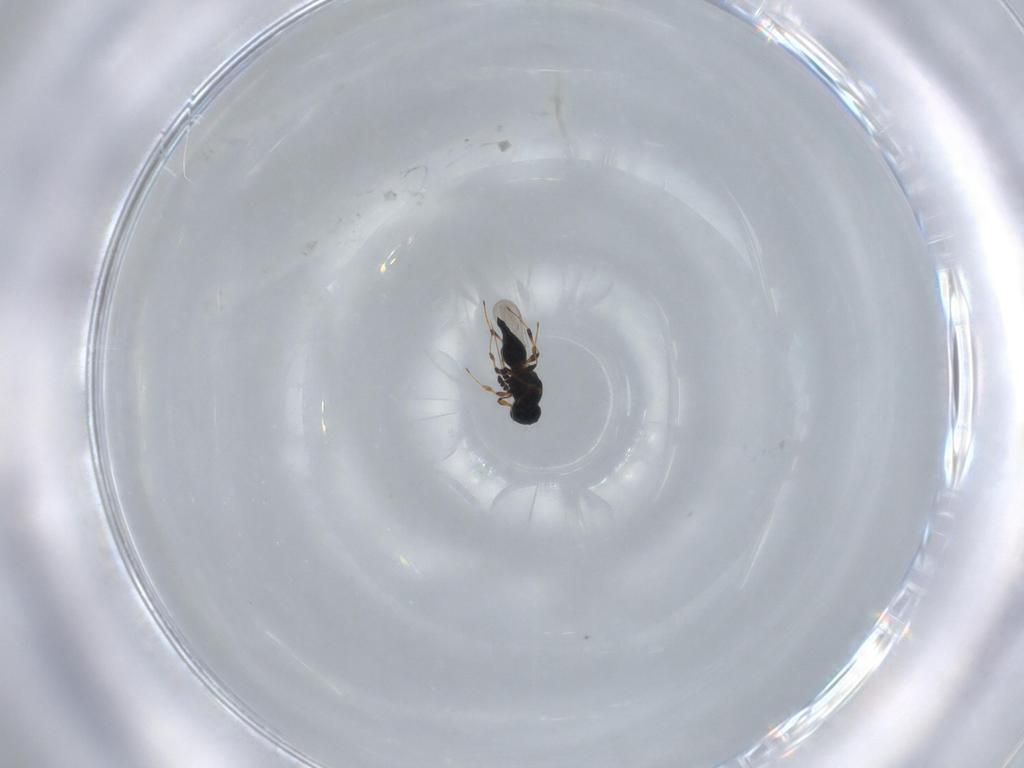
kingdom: Animalia
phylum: Arthropoda
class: Insecta
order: Hymenoptera
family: Platygastridae
